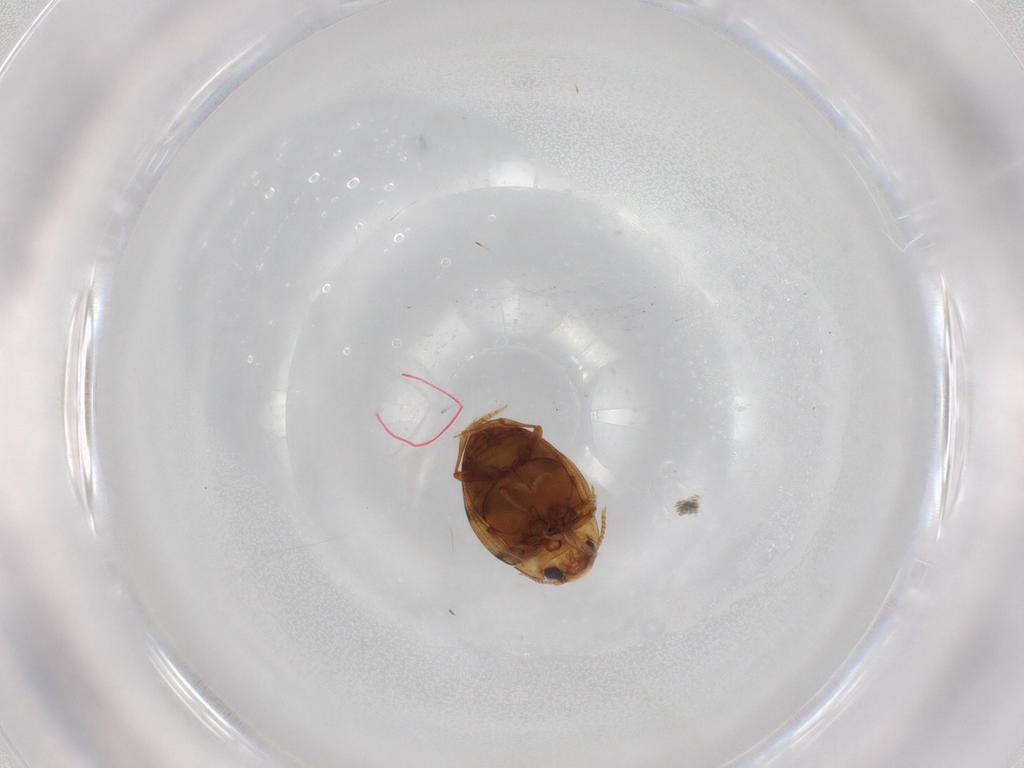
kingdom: Animalia
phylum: Arthropoda
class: Insecta
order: Coleoptera
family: Dytiscidae
